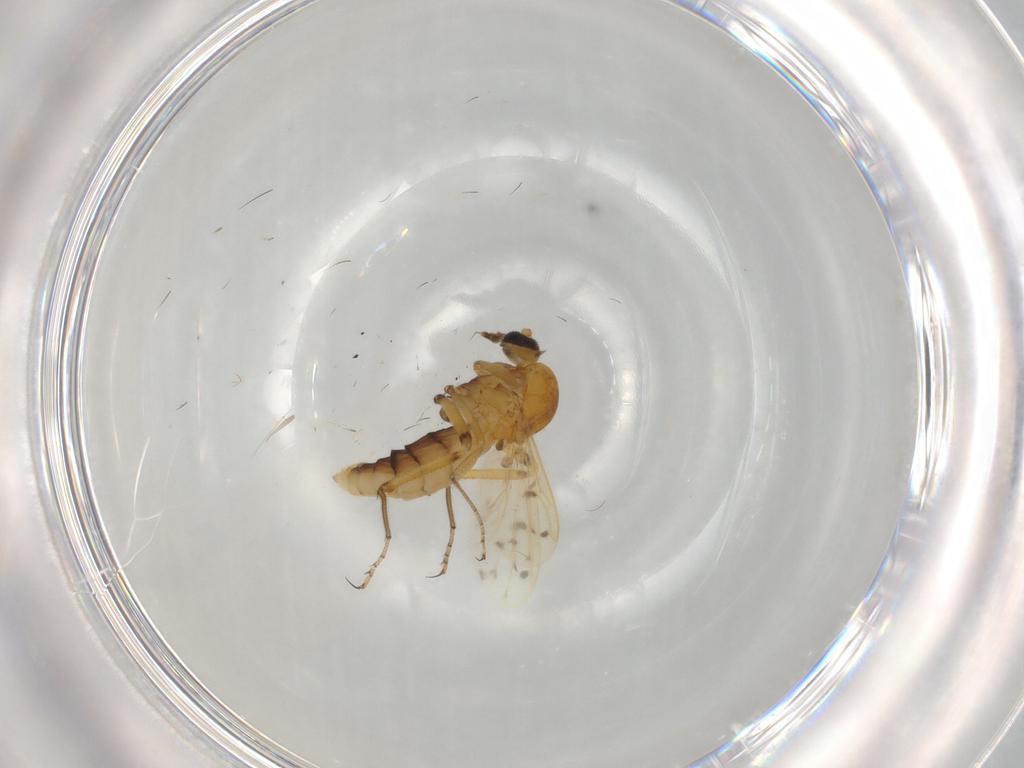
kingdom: Animalia
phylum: Arthropoda
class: Insecta
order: Diptera
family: Agromyzidae
